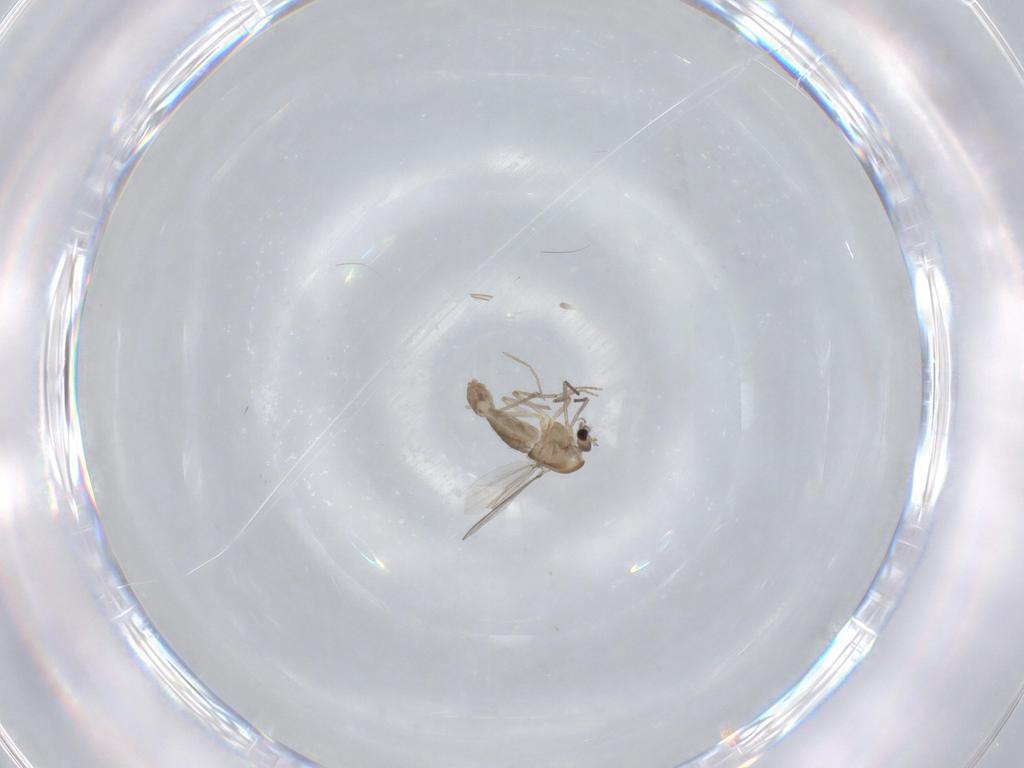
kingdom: Animalia
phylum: Arthropoda
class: Insecta
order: Diptera
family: Chironomidae
